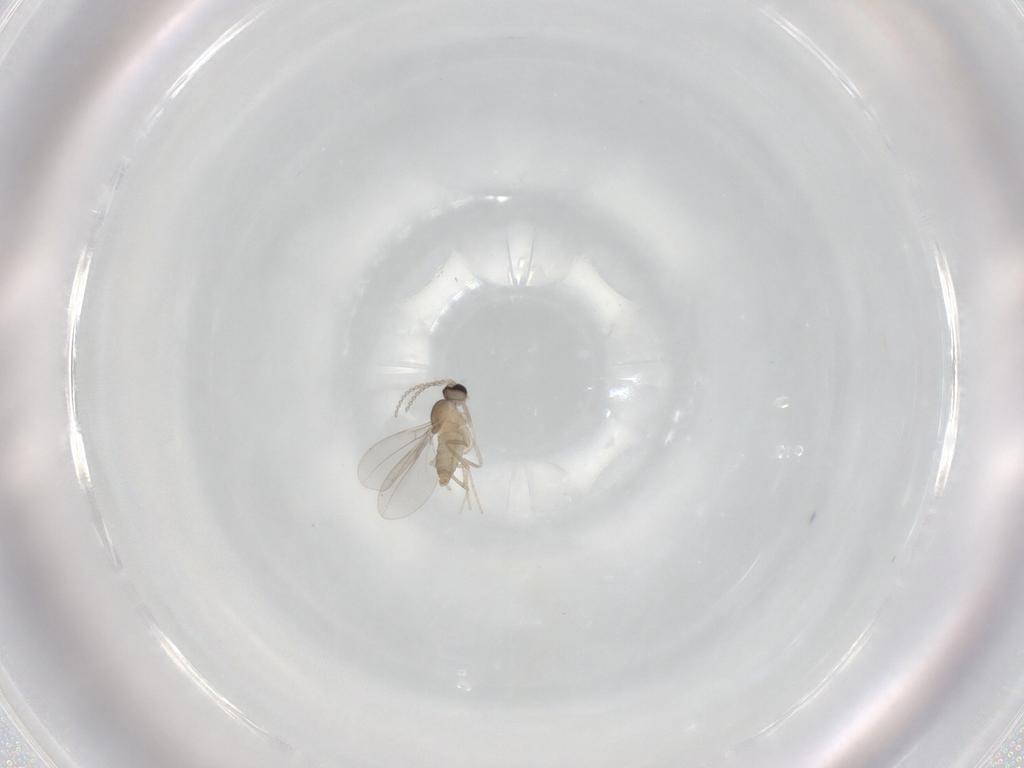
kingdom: Animalia
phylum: Arthropoda
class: Insecta
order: Diptera
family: Cecidomyiidae
